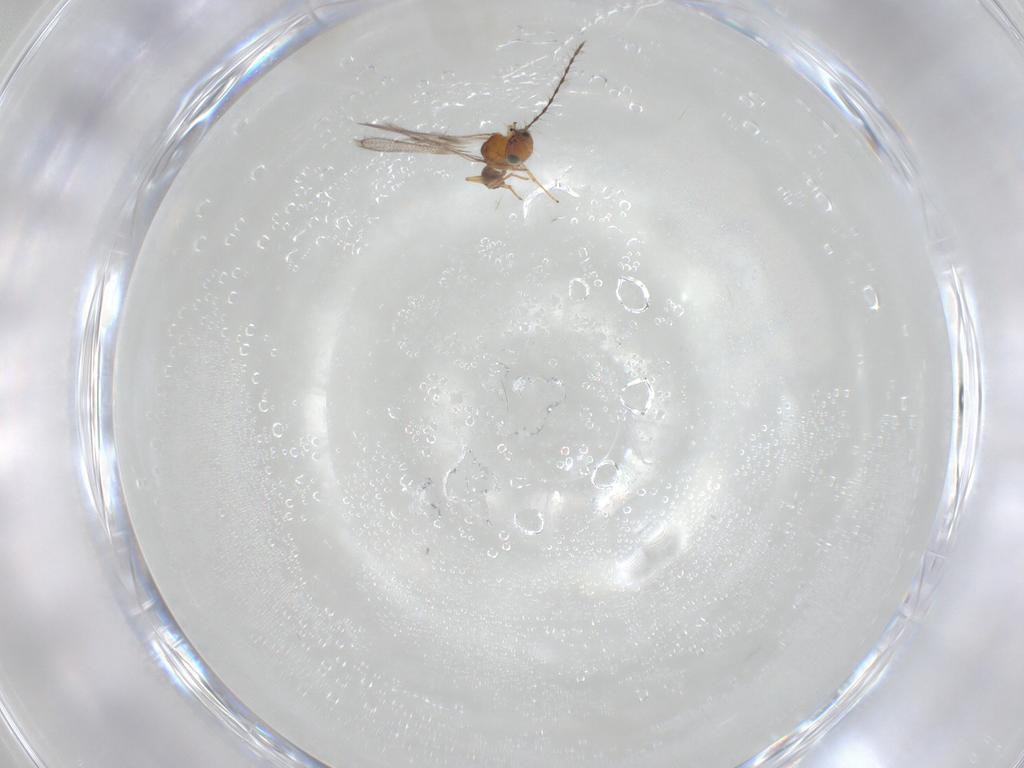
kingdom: Animalia
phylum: Arthropoda
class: Insecta
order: Hymenoptera
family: Diparidae
